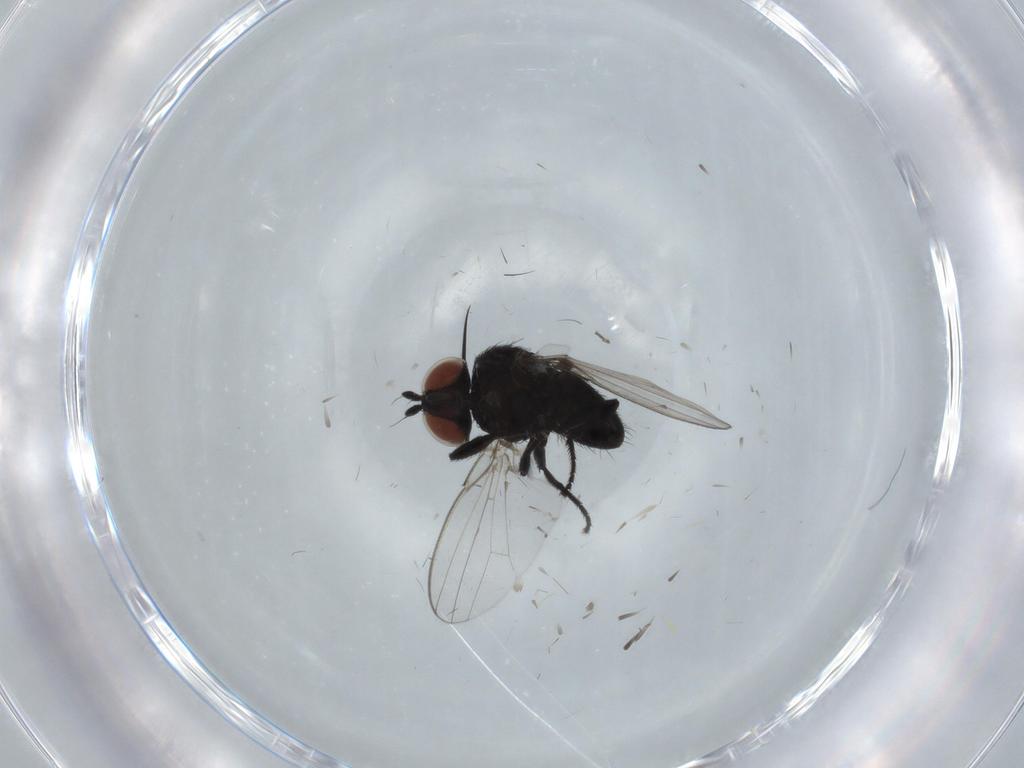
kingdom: Animalia
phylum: Arthropoda
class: Insecta
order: Diptera
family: Milichiidae
